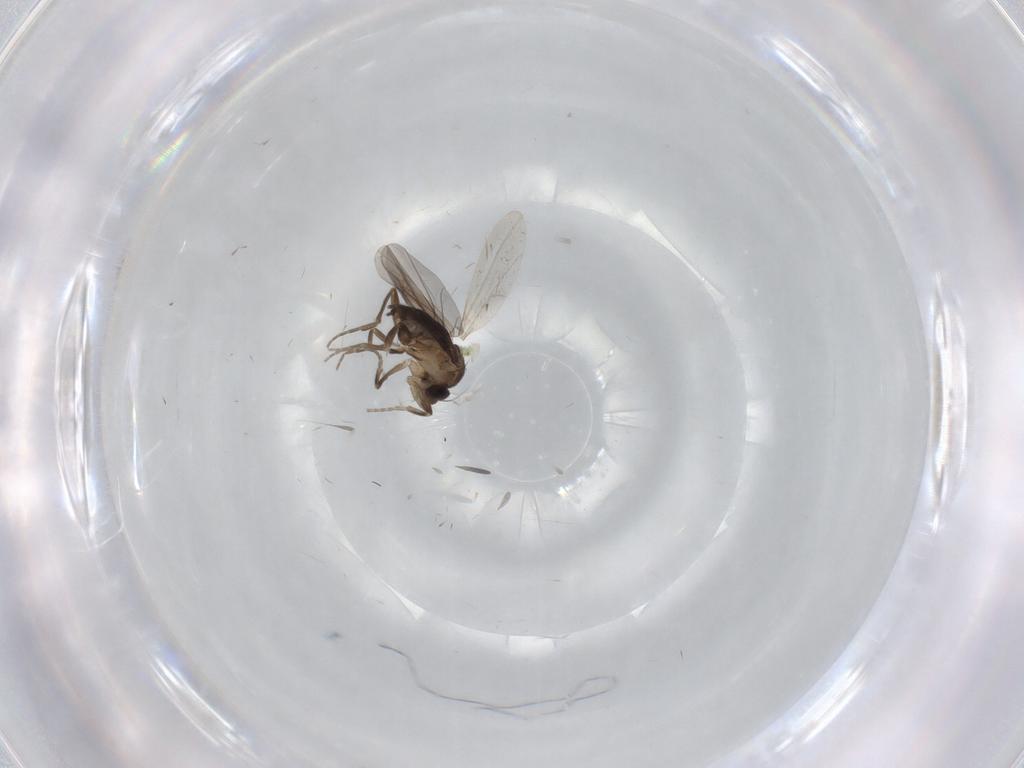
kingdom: Animalia
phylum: Arthropoda
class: Insecta
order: Diptera
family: Cecidomyiidae
